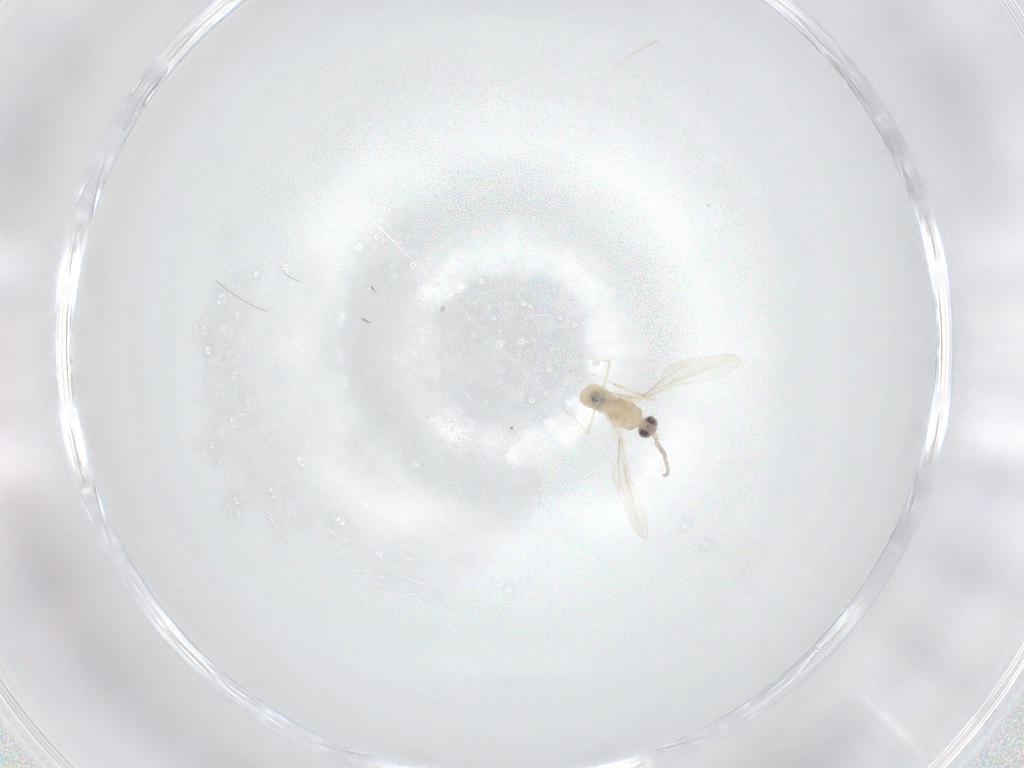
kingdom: Animalia
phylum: Arthropoda
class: Insecta
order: Diptera
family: Cecidomyiidae
